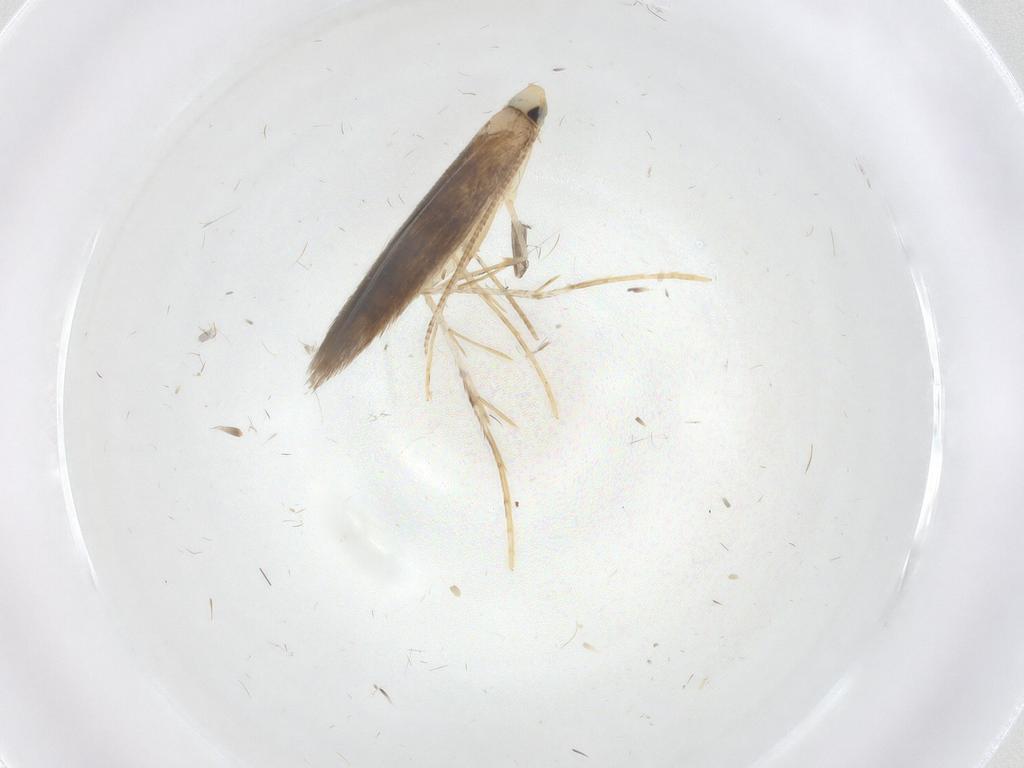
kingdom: Animalia
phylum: Arthropoda
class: Insecta
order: Lepidoptera
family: Psychidae
